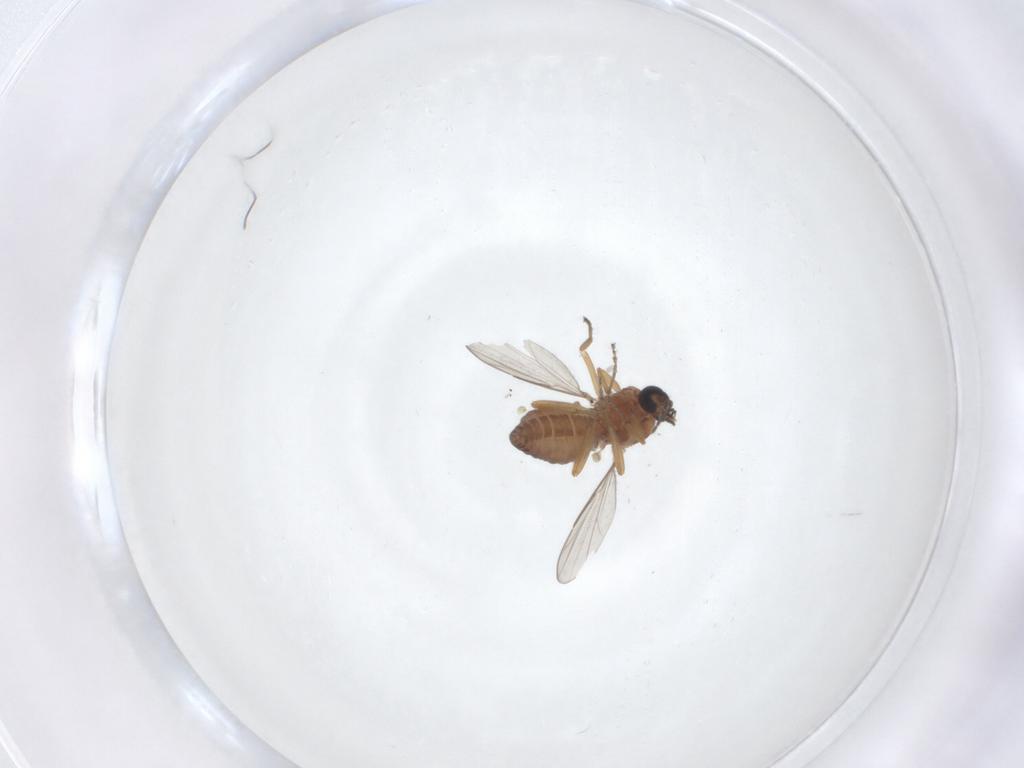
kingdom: Animalia
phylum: Arthropoda
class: Insecta
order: Diptera
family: Ceratopogonidae
